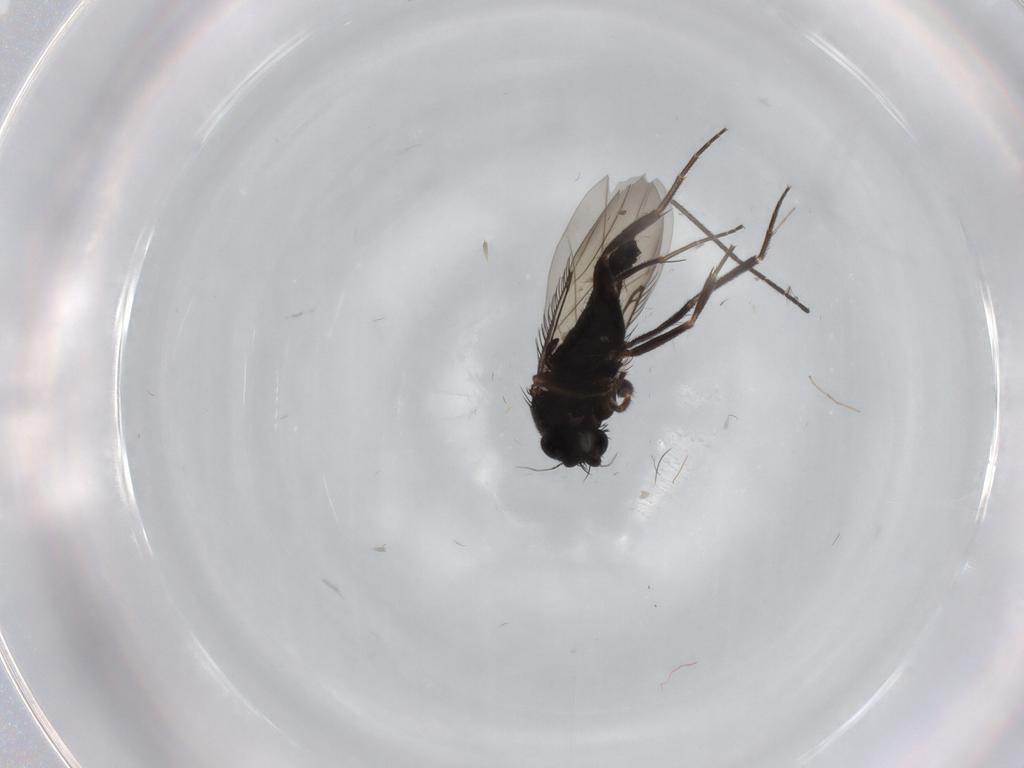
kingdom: Animalia
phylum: Arthropoda
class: Insecta
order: Diptera
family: Phoridae
